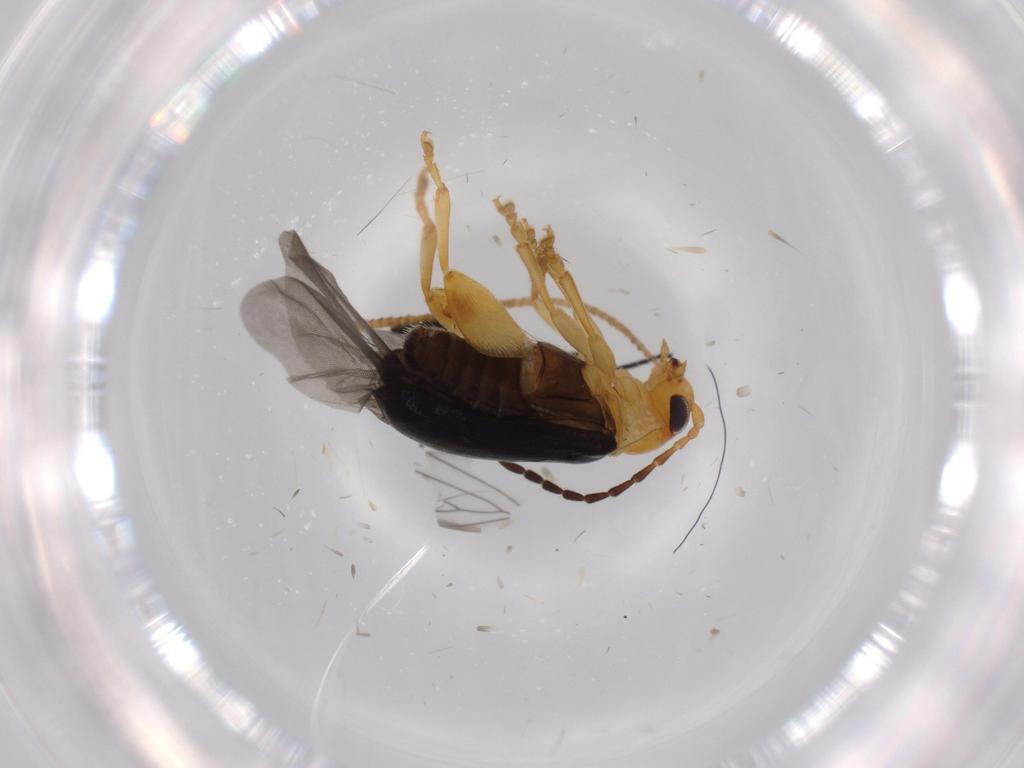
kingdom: Animalia
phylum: Arthropoda
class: Insecta
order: Coleoptera
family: Chrysomelidae
